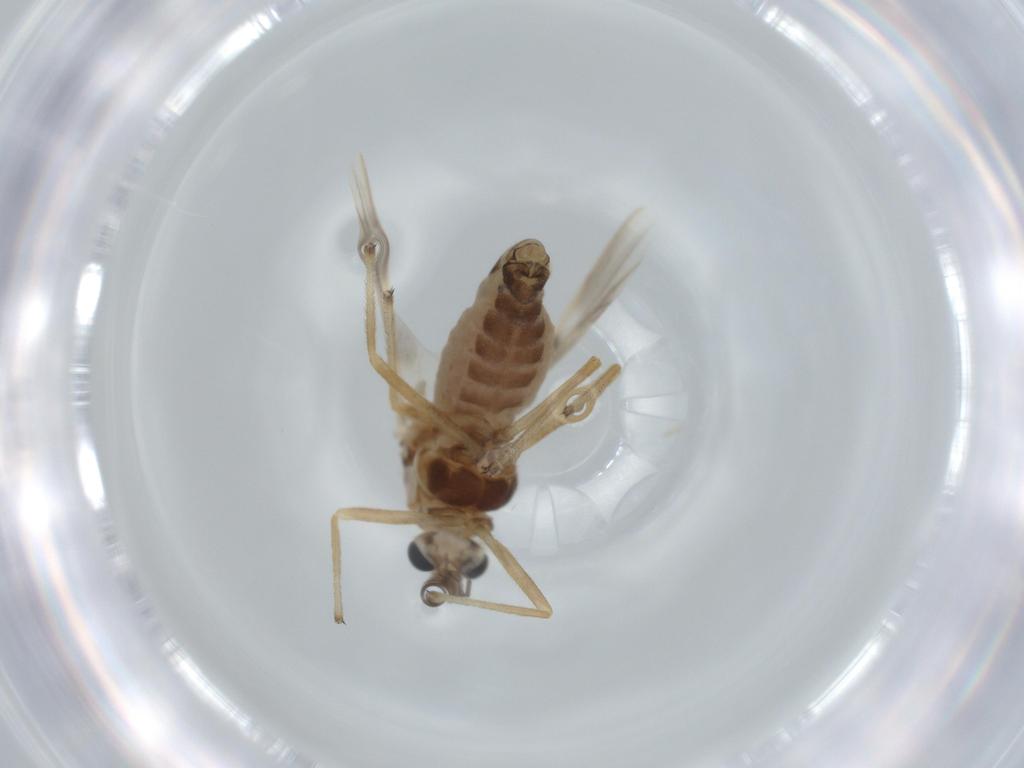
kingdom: Animalia
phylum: Arthropoda
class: Insecta
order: Diptera
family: Chironomidae
